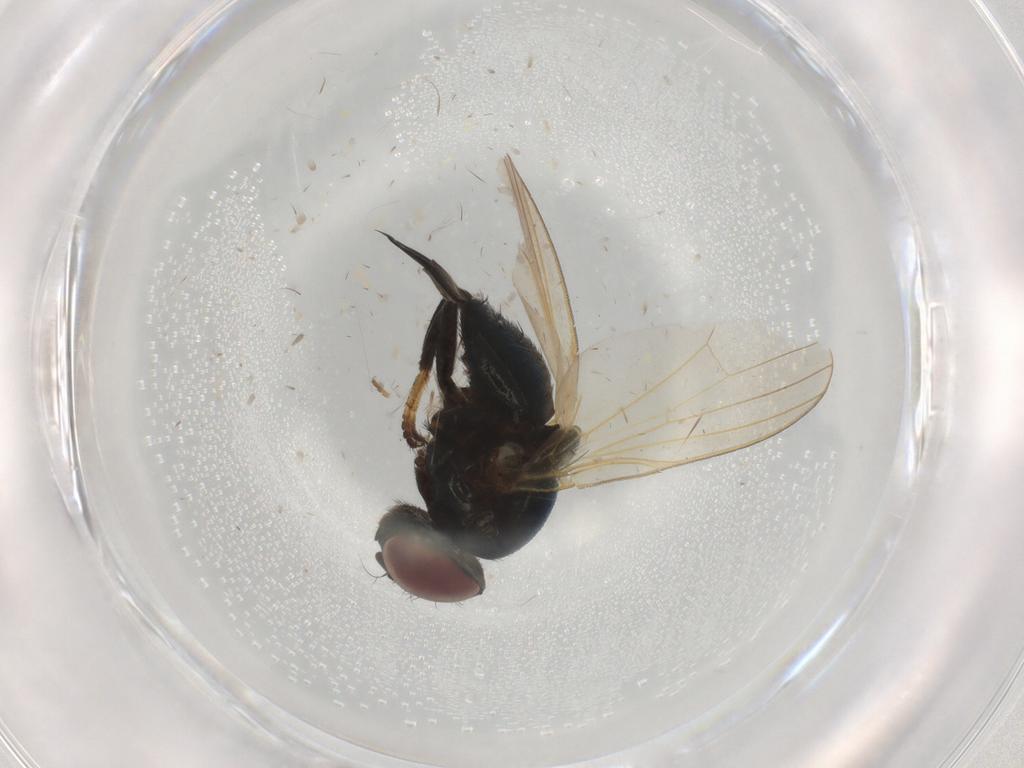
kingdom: Animalia
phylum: Arthropoda
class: Insecta
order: Diptera
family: Lonchaeidae
